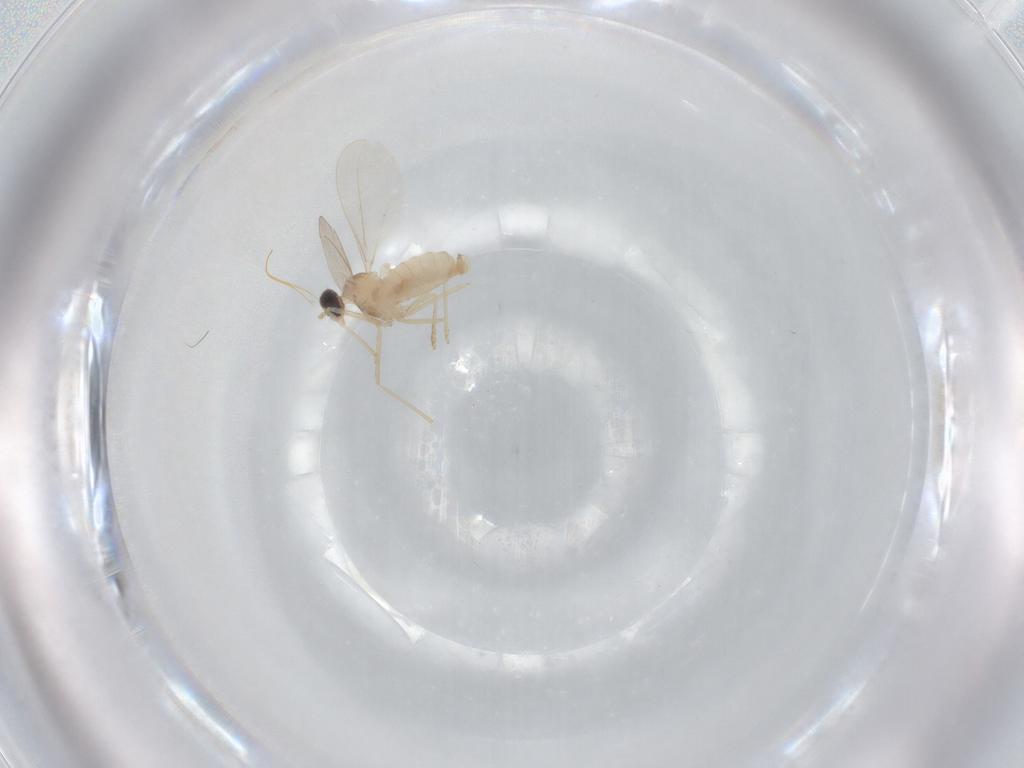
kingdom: Animalia
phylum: Arthropoda
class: Insecta
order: Diptera
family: Cecidomyiidae
